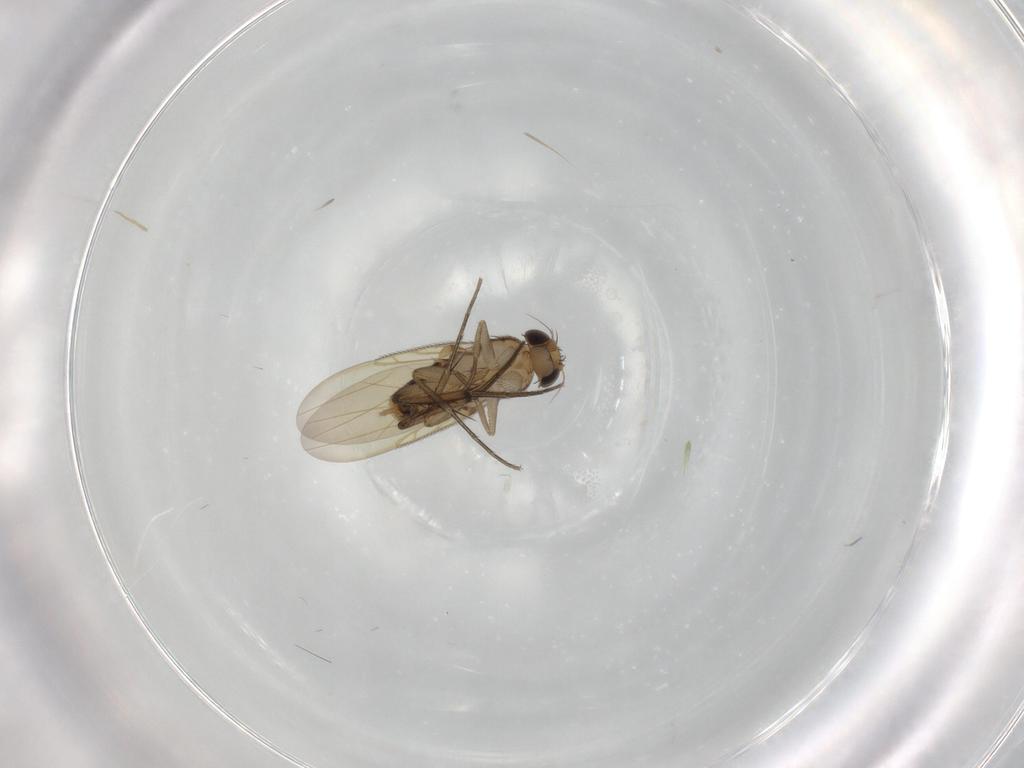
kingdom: Animalia
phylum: Arthropoda
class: Insecta
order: Diptera
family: Phoridae
